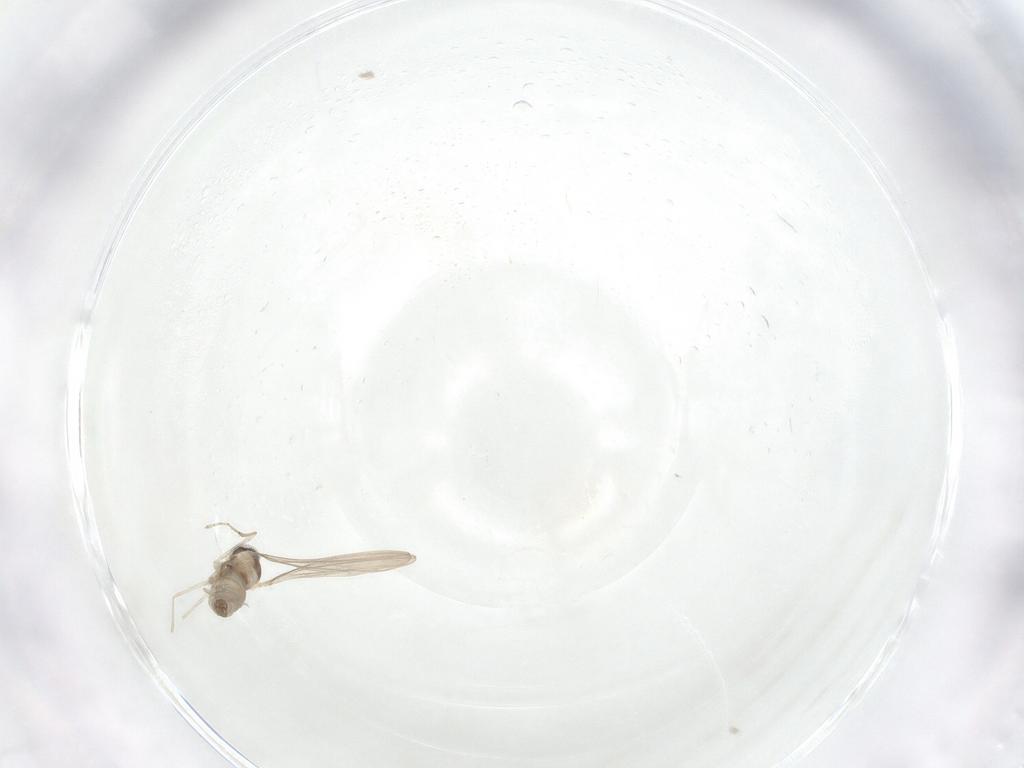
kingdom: Animalia
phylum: Arthropoda
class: Insecta
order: Diptera
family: Cecidomyiidae
